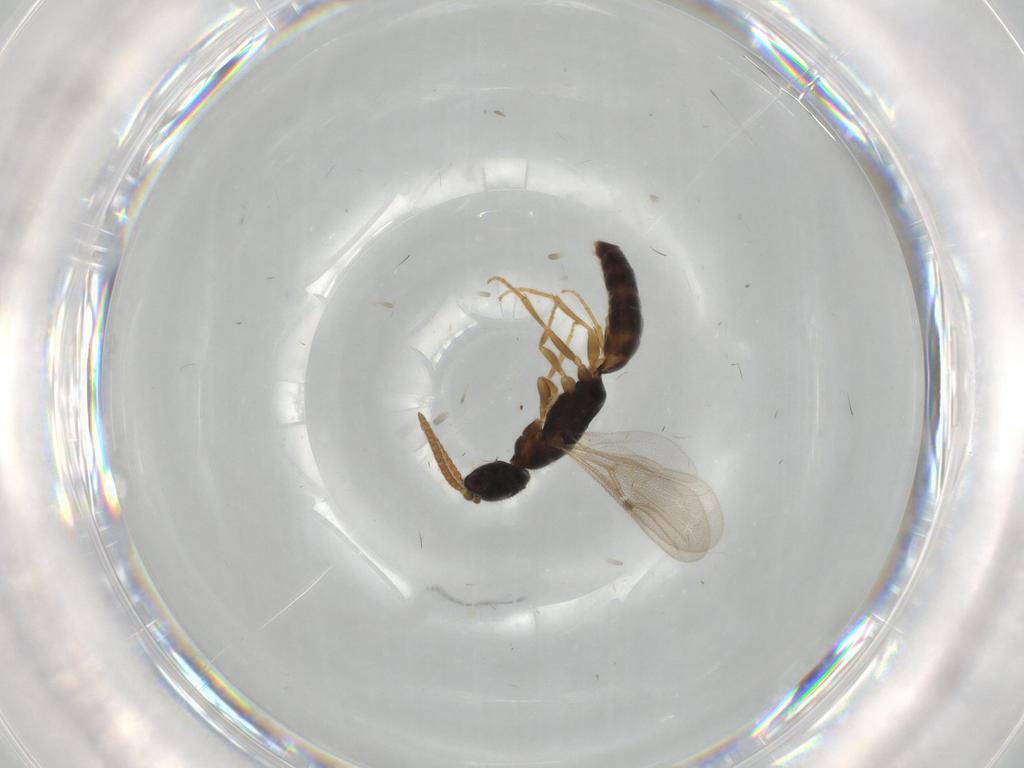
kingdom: Animalia
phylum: Arthropoda
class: Insecta
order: Hymenoptera
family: Bethylidae
